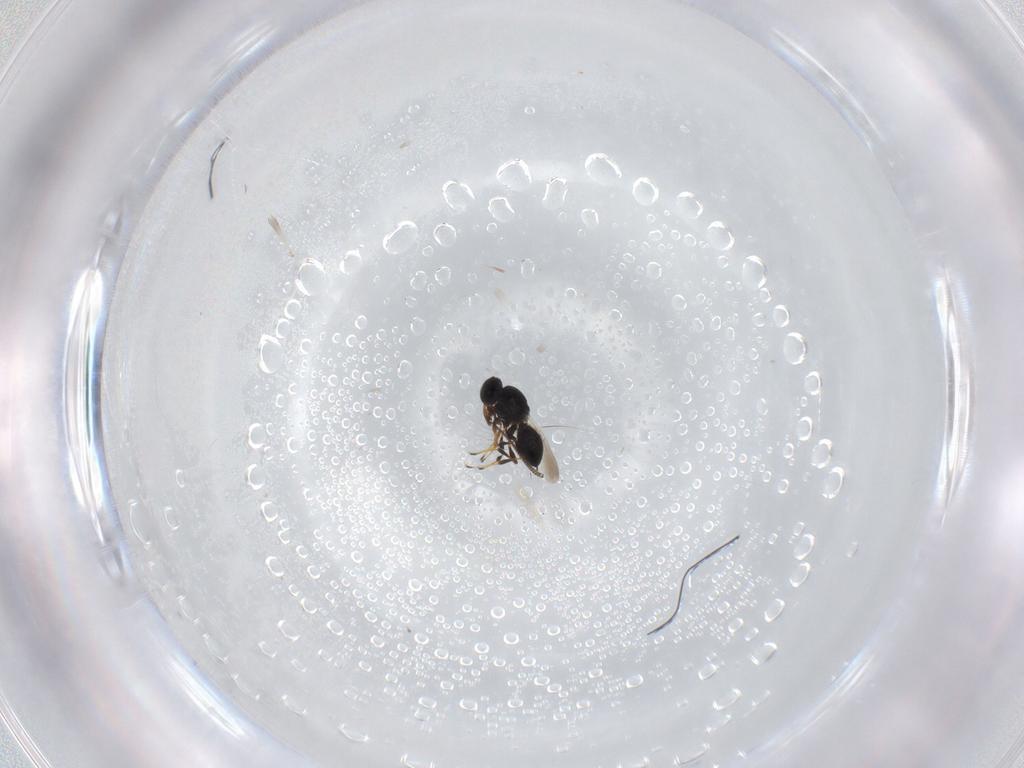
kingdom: Animalia
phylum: Arthropoda
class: Insecta
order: Hymenoptera
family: Platygastridae
